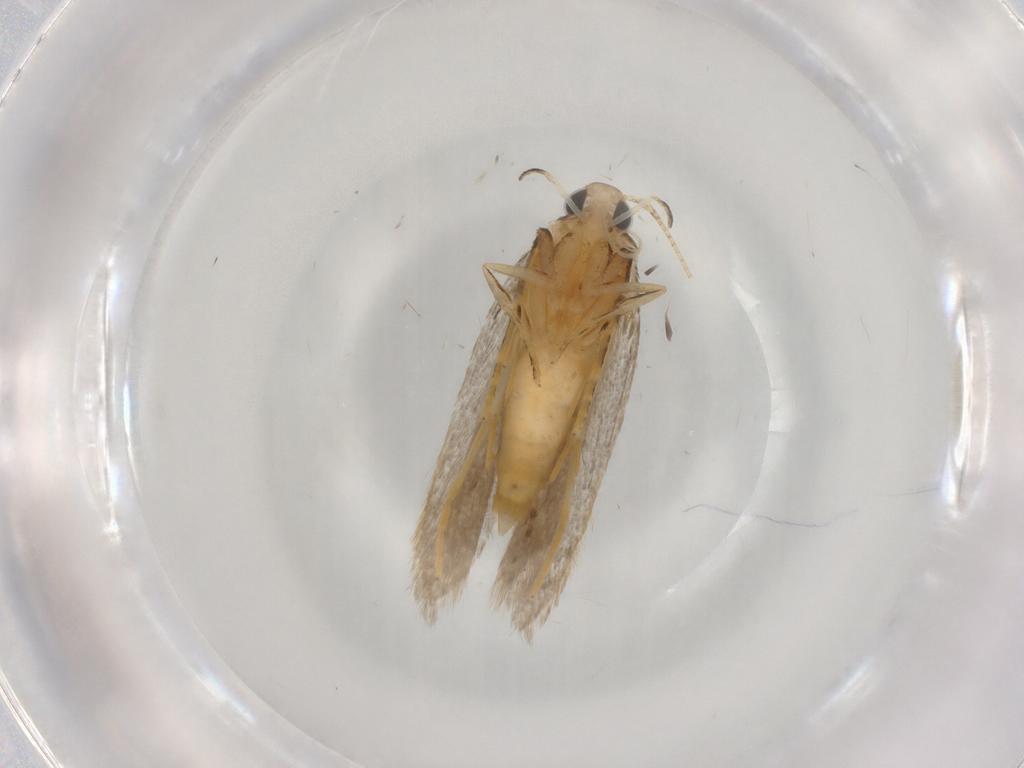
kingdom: Animalia
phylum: Arthropoda
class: Insecta
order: Lepidoptera
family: Autostichidae
